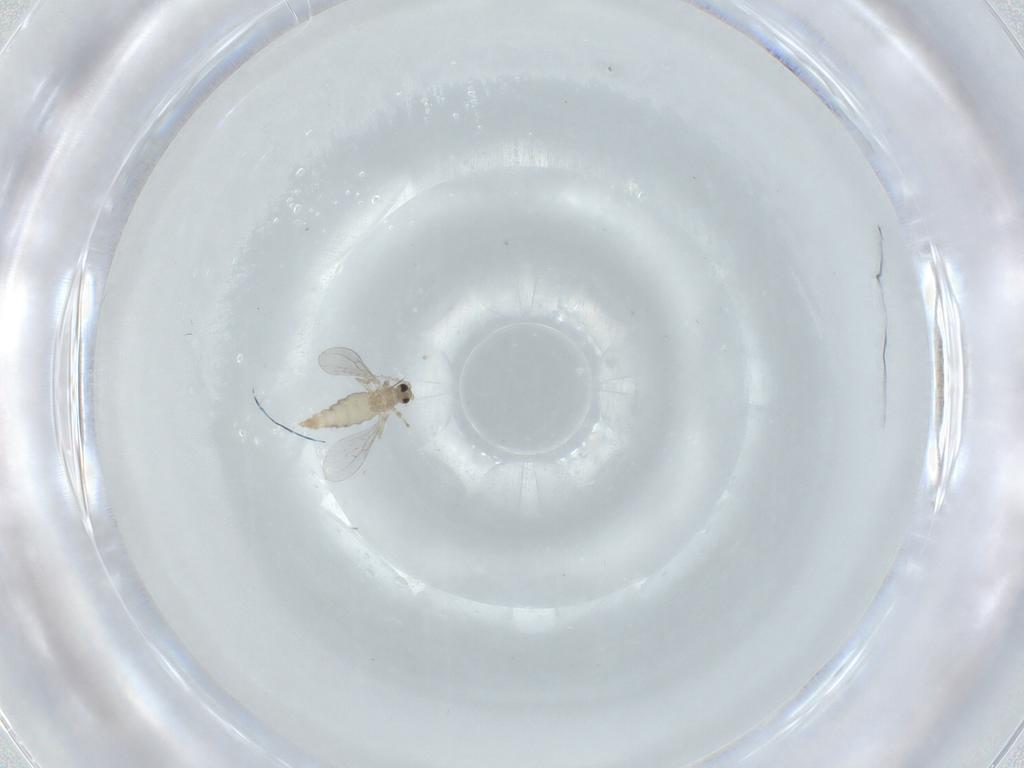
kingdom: Animalia
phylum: Arthropoda
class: Insecta
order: Diptera
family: Cecidomyiidae
